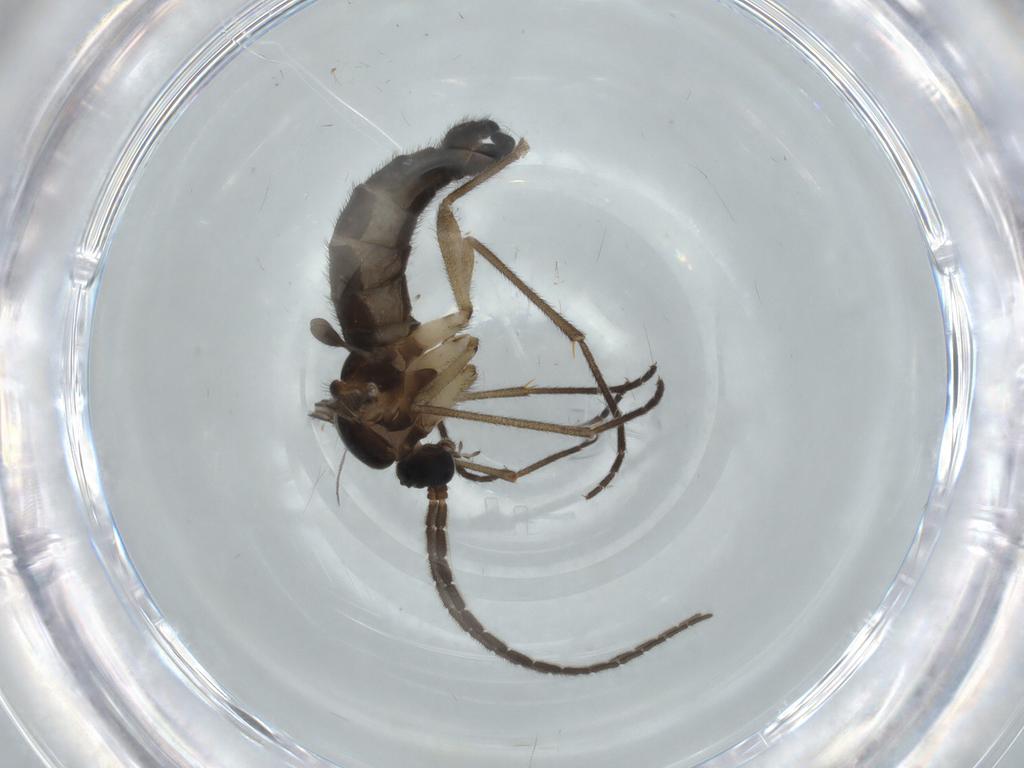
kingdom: Animalia
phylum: Arthropoda
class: Insecta
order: Diptera
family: Sciaridae
